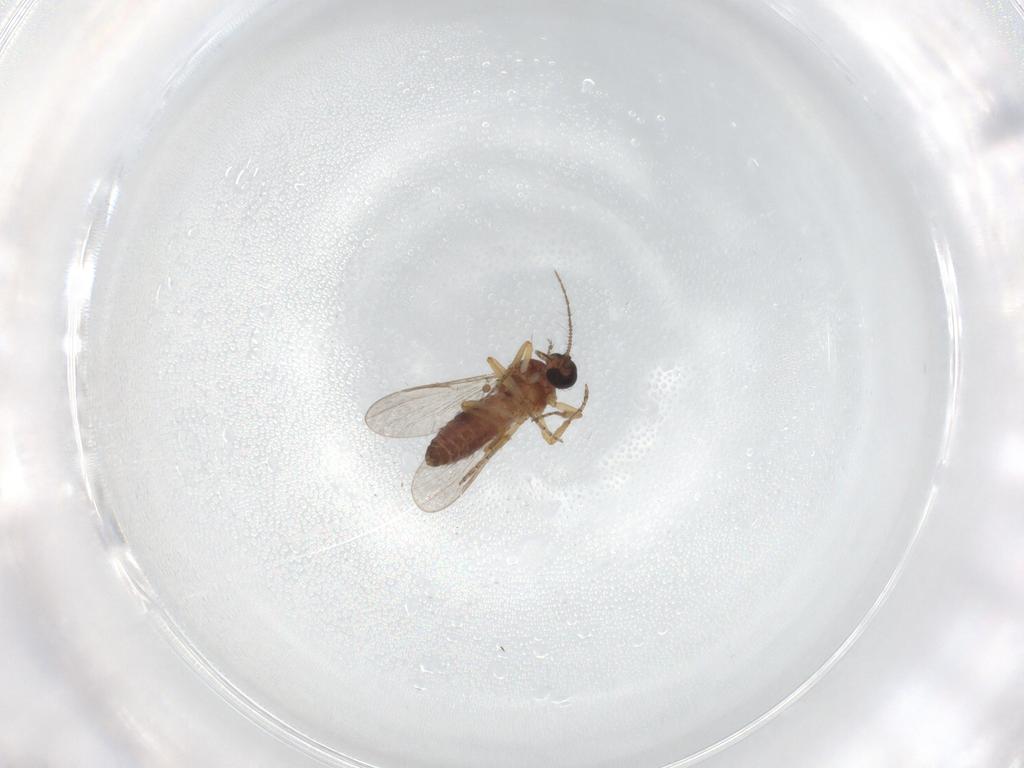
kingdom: Animalia
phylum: Arthropoda
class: Insecta
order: Diptera
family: Ceratopogonidae
